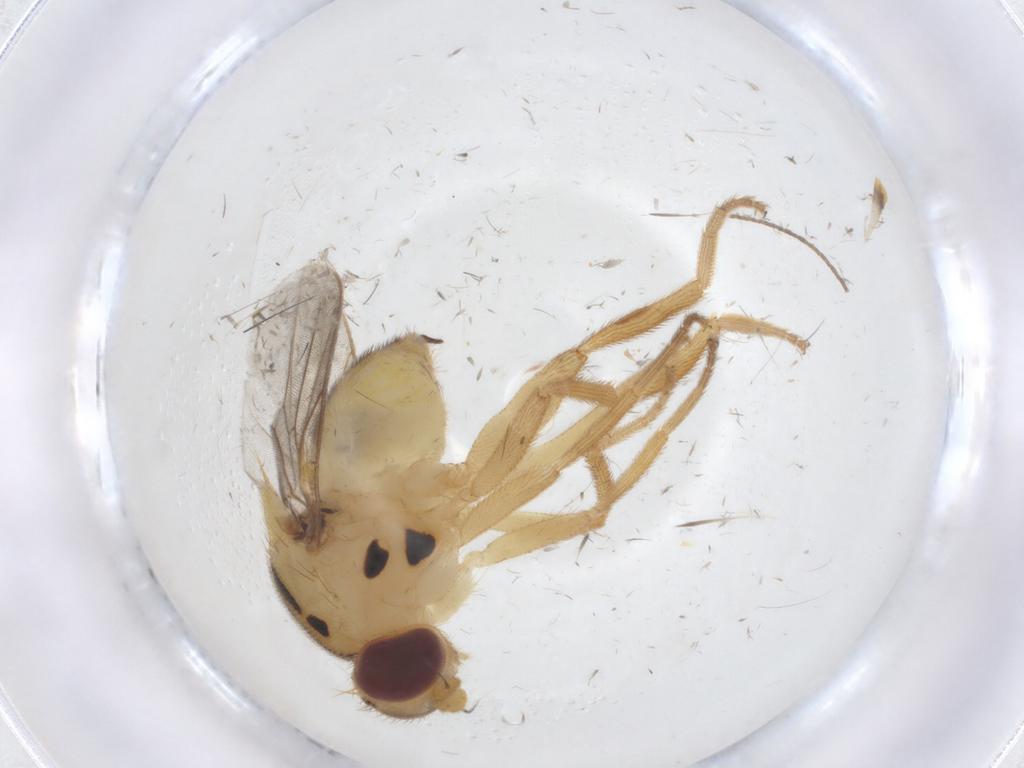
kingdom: Animalia
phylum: Arthropoda
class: Insecta
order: Diptera
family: Chloropidae
